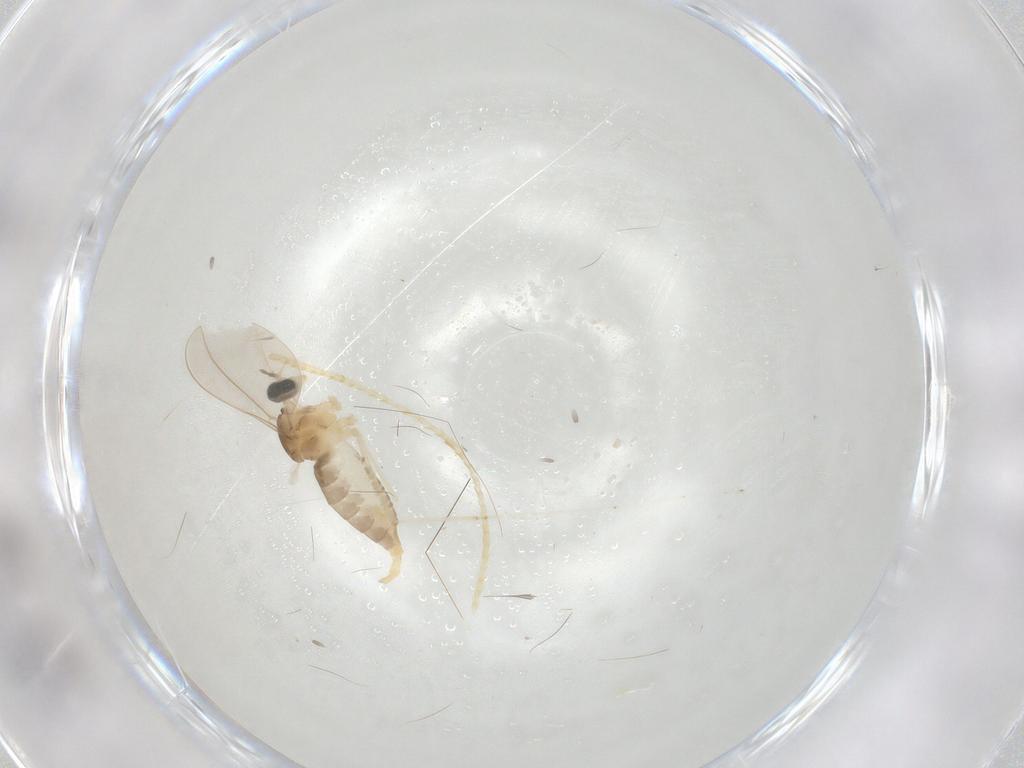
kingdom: Animalia
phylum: Arthropoda
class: Insecta
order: Diptera
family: Cecidomyiidae
